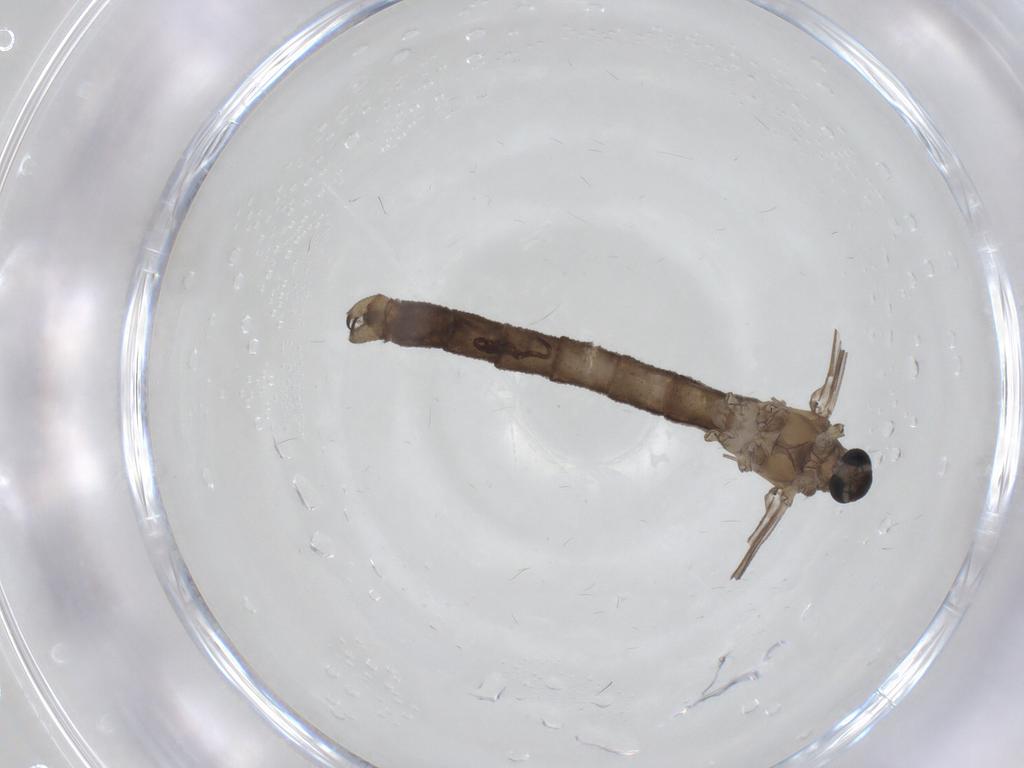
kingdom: Animalia
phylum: Arthropoda
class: Insecta
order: Diptera
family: Limoniidae
